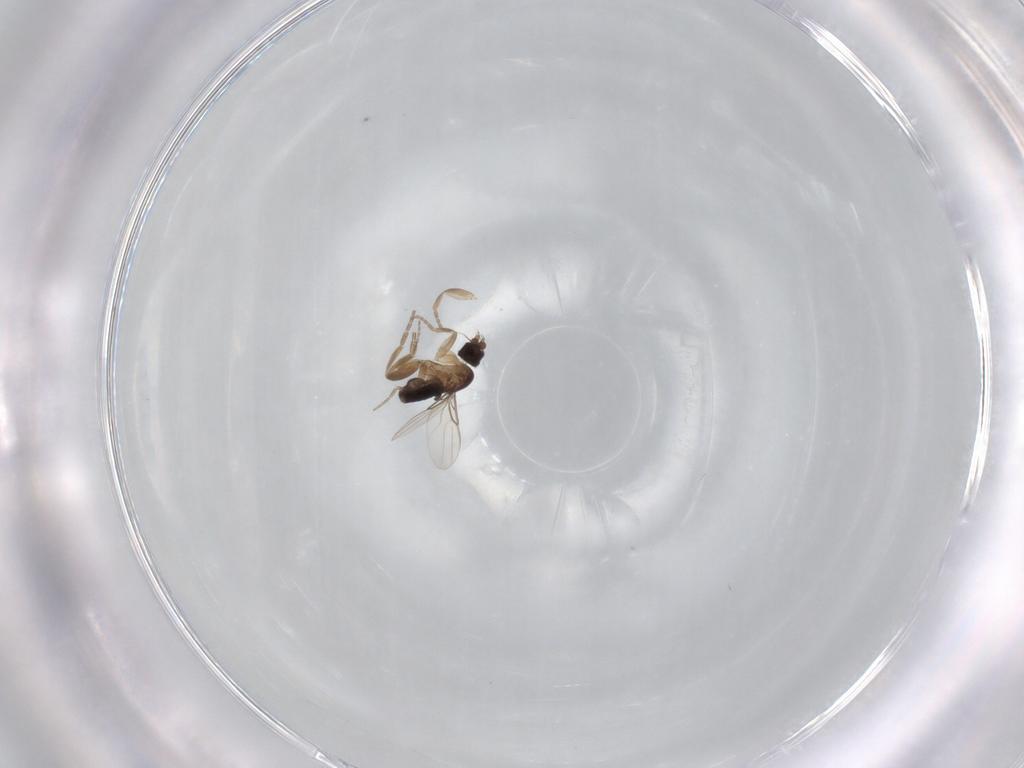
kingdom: Animalia
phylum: Arthropoda
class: Insecta
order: Diptera
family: Phoridae
